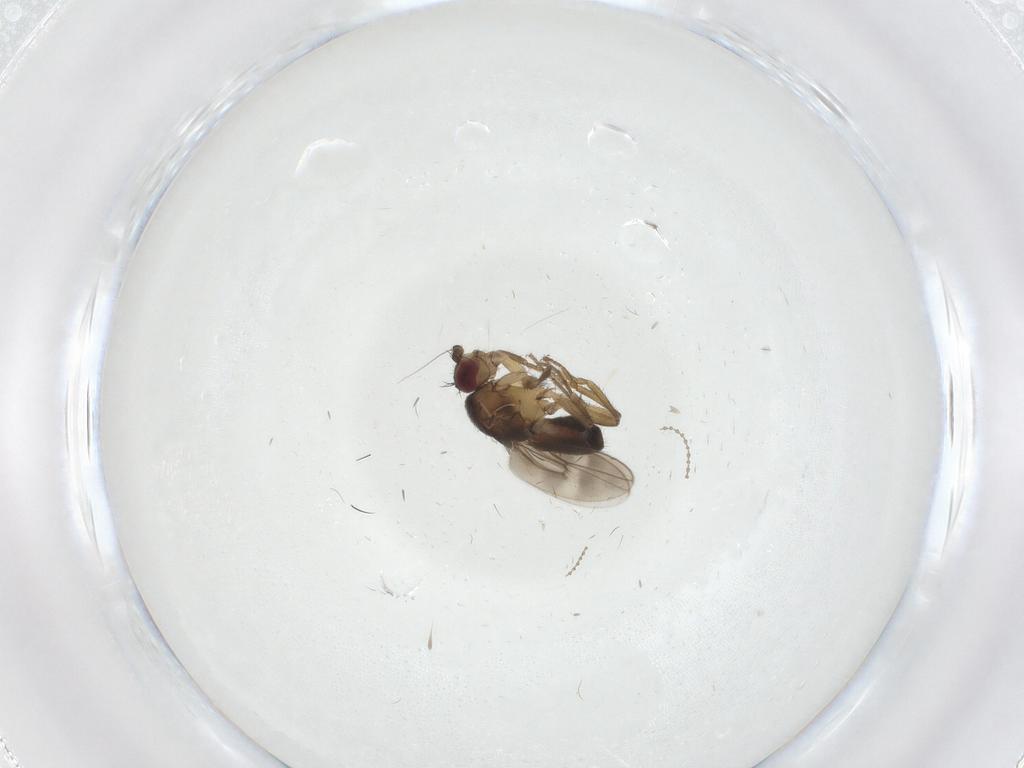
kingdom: Animalia
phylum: Arthropoda
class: Insecta
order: Diptera
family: Sphaeroceridae
